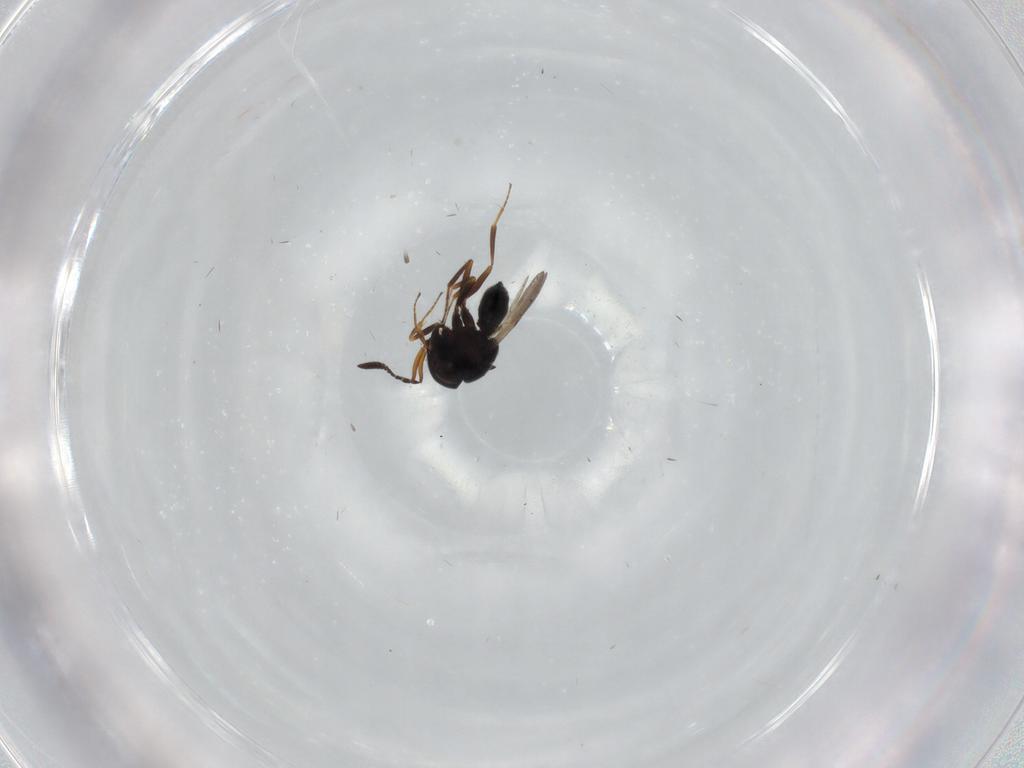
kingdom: Animalia
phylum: Arthropoda
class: Insecta
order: Hymenoptera
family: Scelionidae
